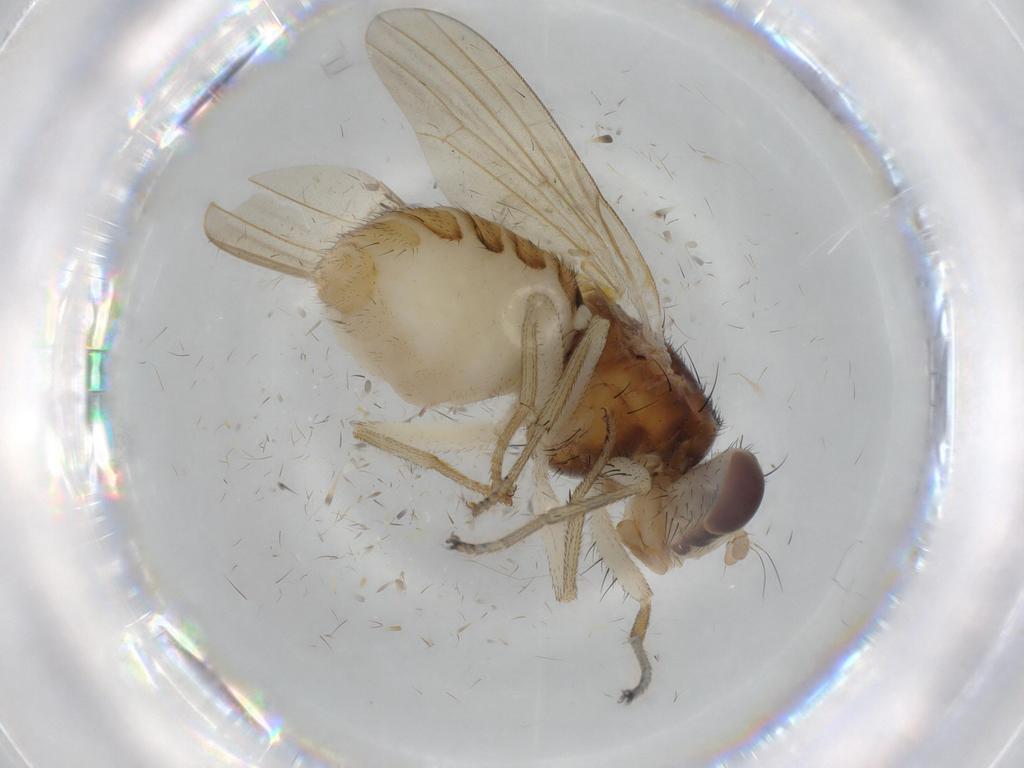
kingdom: Animalia
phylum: Arthropoda
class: Insecta
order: Diptera
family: Lauxaniidae
